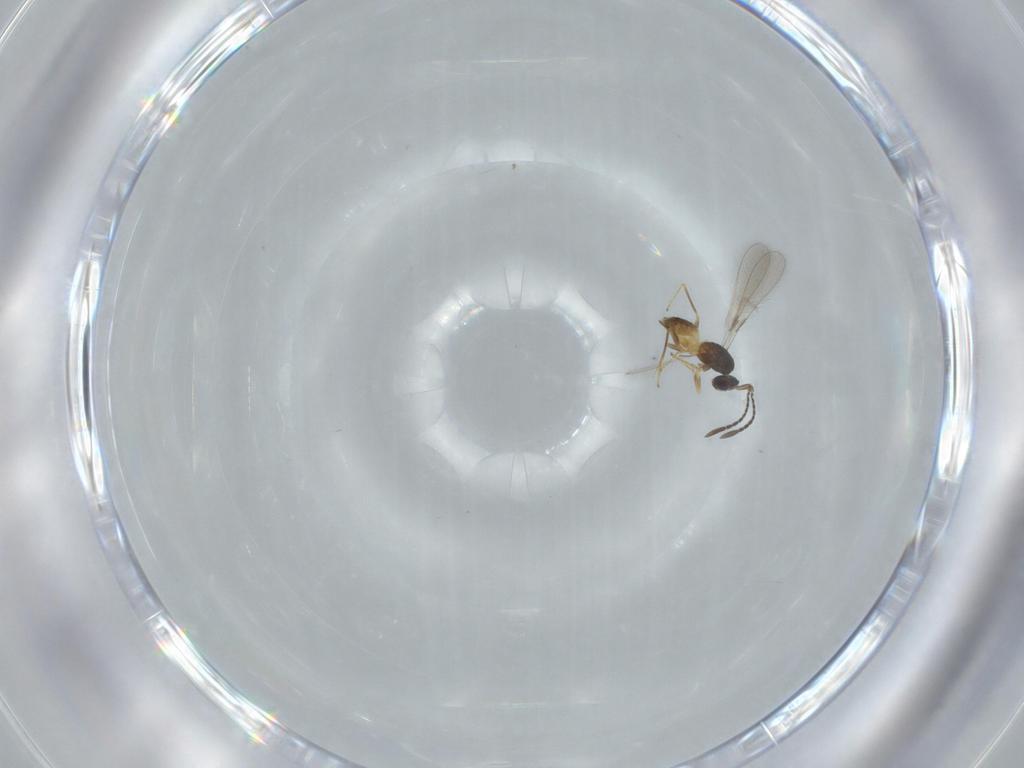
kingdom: Animalia
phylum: Arthropoda
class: Insecta
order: Hymenoptera
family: Mymaridae
